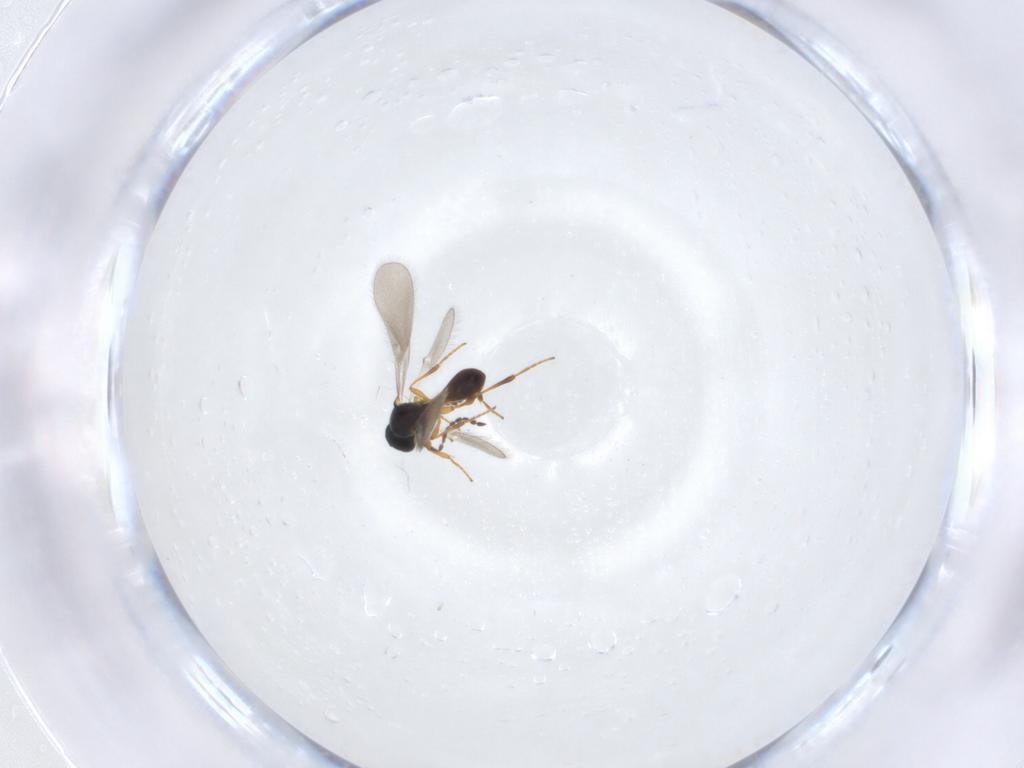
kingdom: Animalia
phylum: Arthropoda
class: Insecta
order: Hymenoptera
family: Platygastridae
